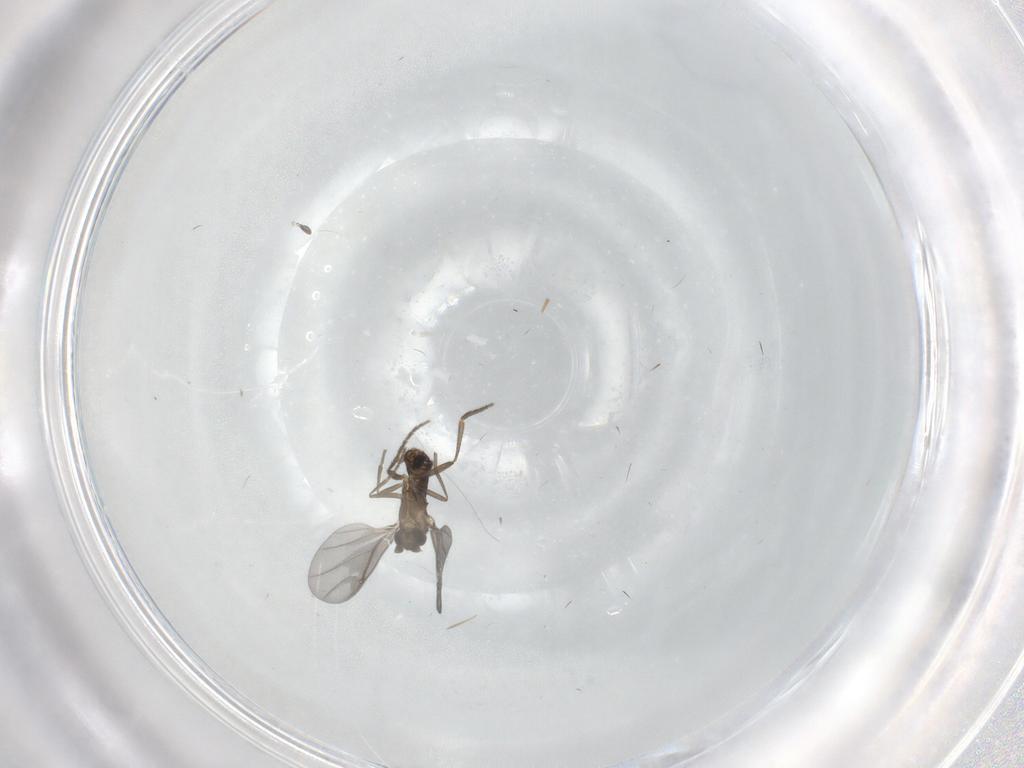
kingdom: Animalia
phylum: Arthropoda
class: Insecta
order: Diptera
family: Phoridae
